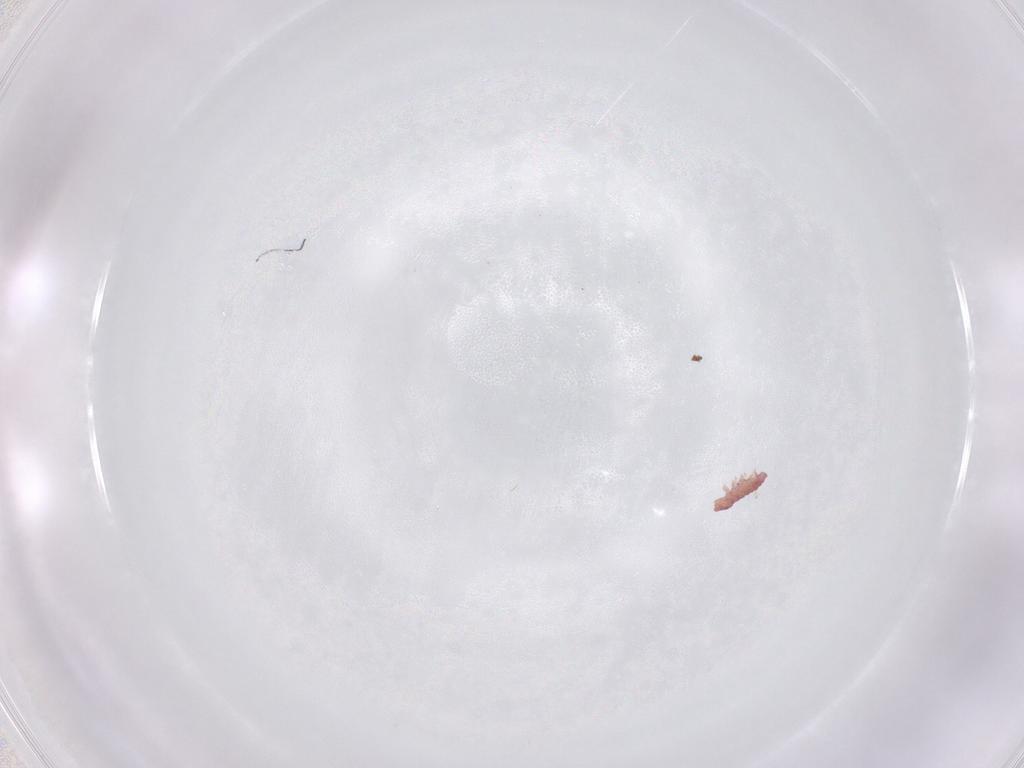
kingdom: Animalia
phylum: Arthropoda
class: Collembola
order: Poduromorpha
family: Hypogastruridae
